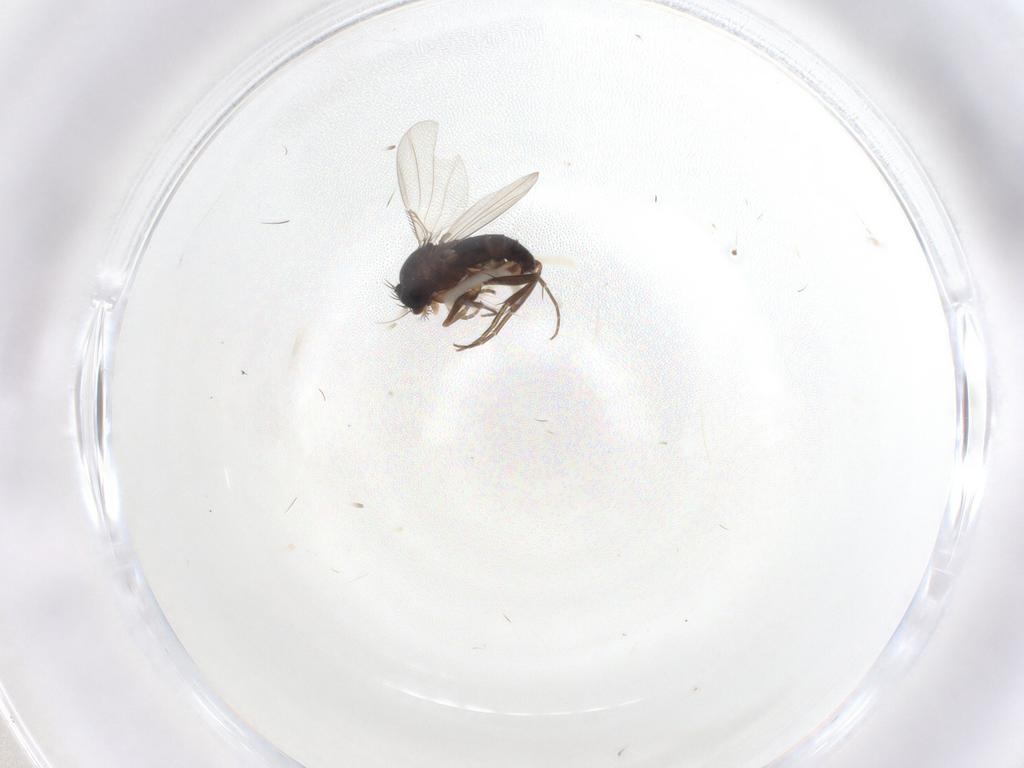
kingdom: Animalia
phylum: Arthropoda
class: Insecta
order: Diptera
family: Phoridae
